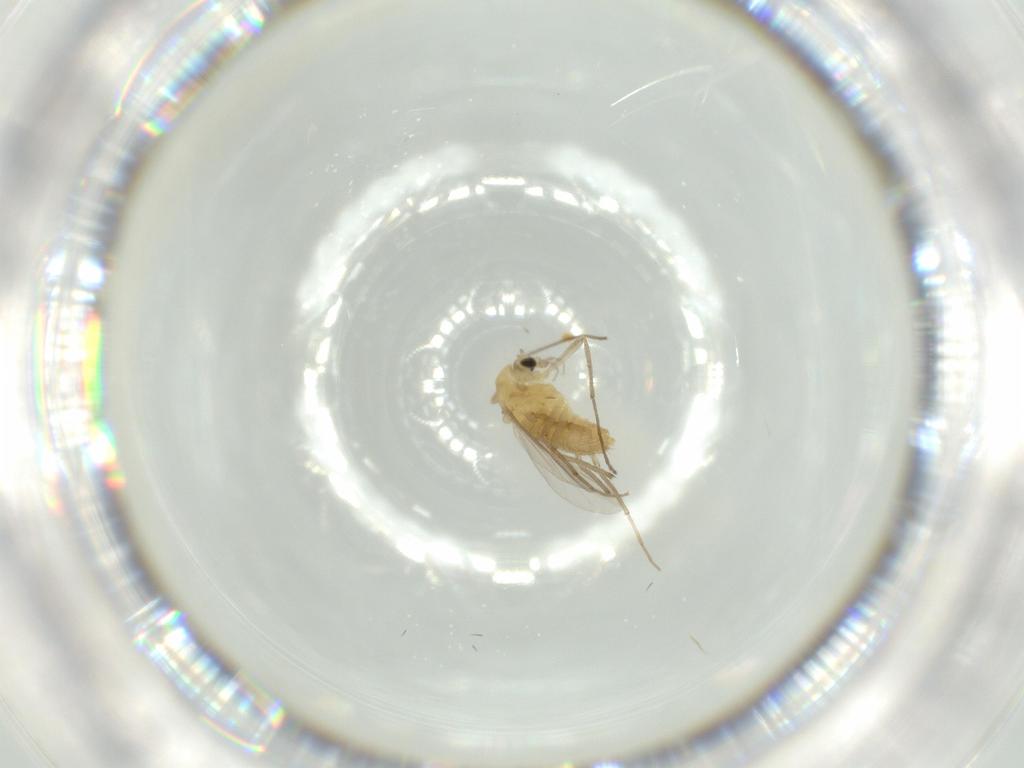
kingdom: Animalia
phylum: Arthropoda
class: Insecta
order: Diptera
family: Chironomidae
